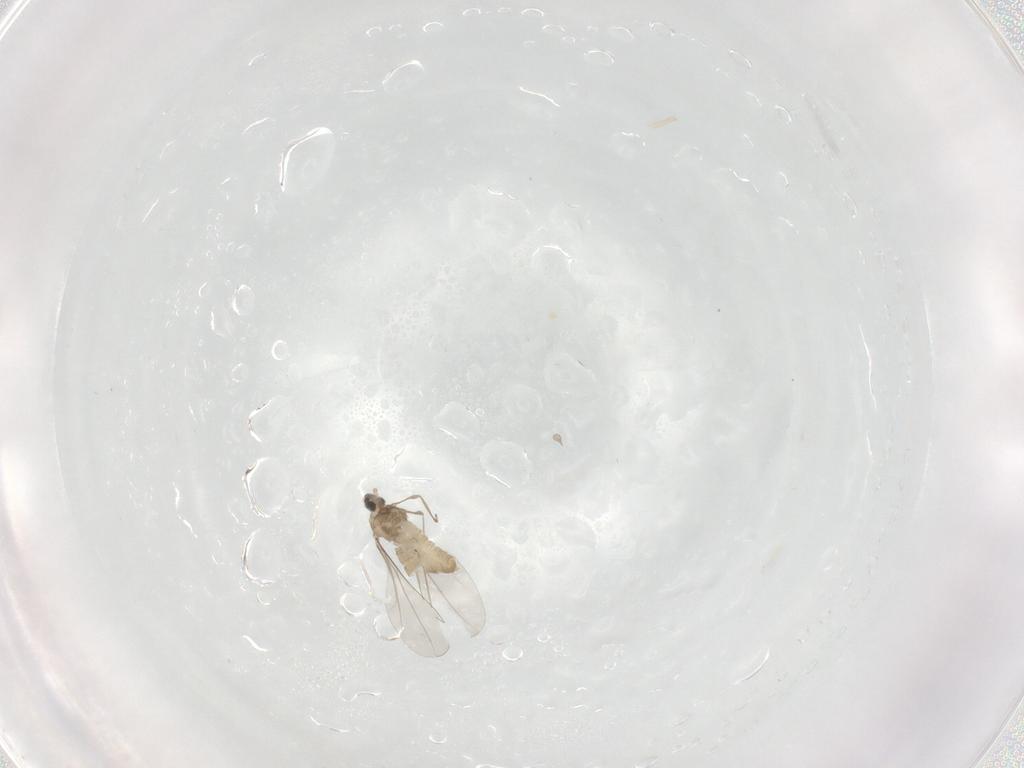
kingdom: Animalia
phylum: Arthropoda
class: Insecta
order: Diptera
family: Cecidomyiidae
